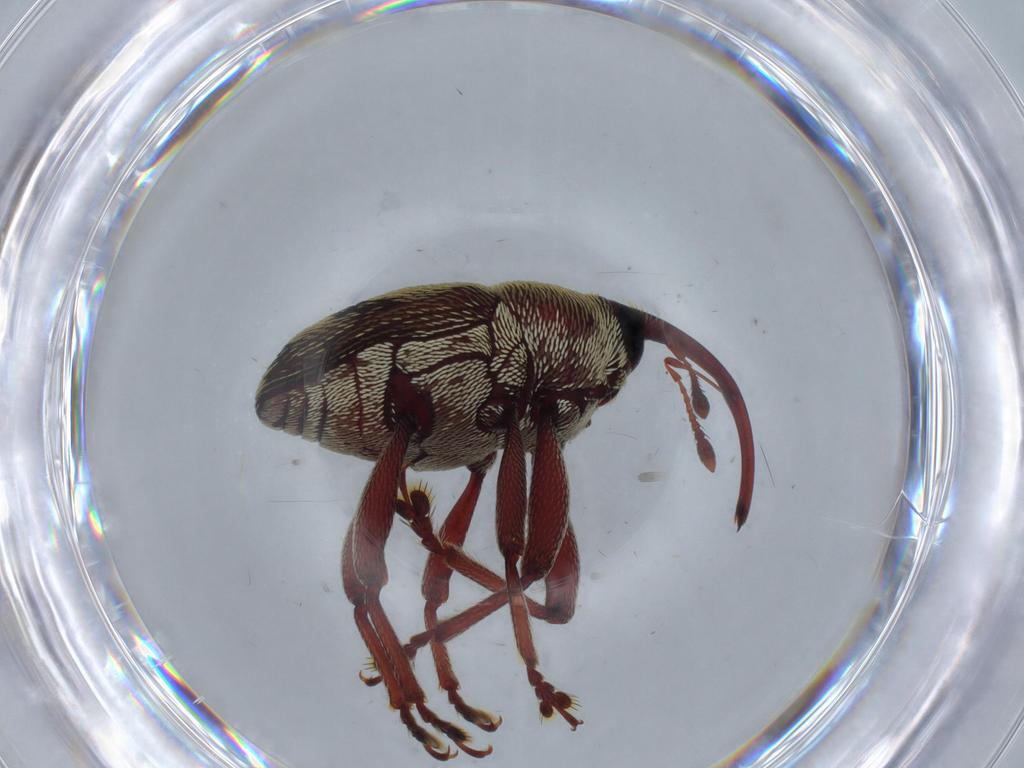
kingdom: Animalia
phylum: Arthropoda
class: Insecta
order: Coleoptera
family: Curculionidae
